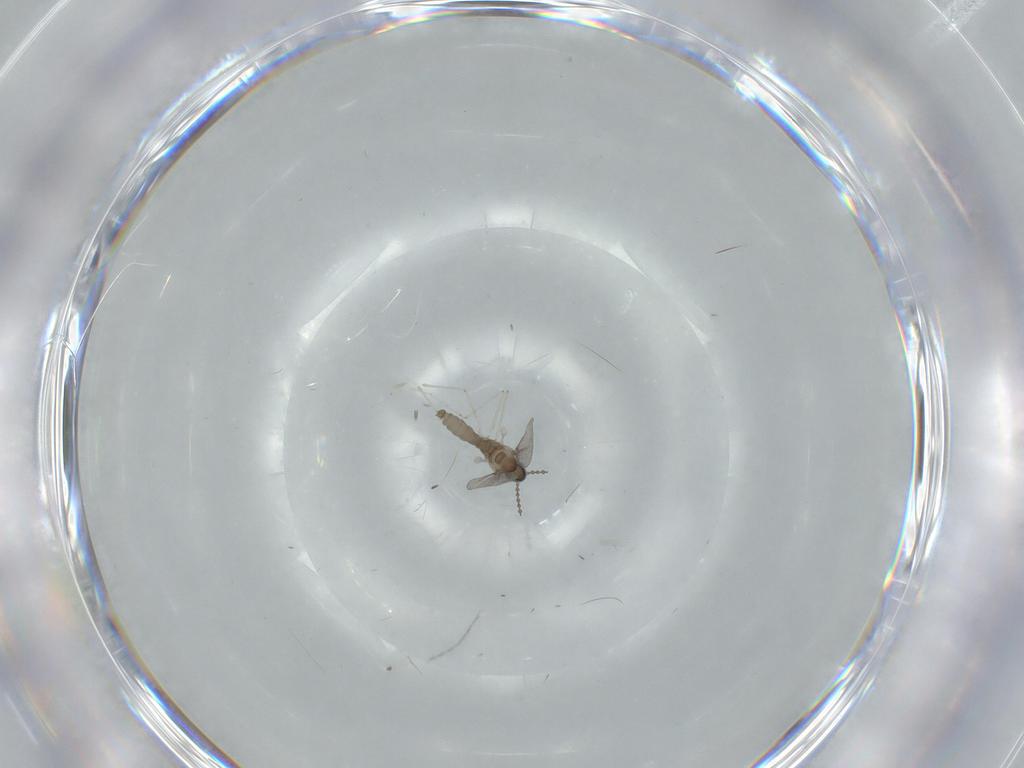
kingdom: Animalia
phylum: Arthropoda
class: Insecta
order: Diptera
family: Cecidomyiidae
